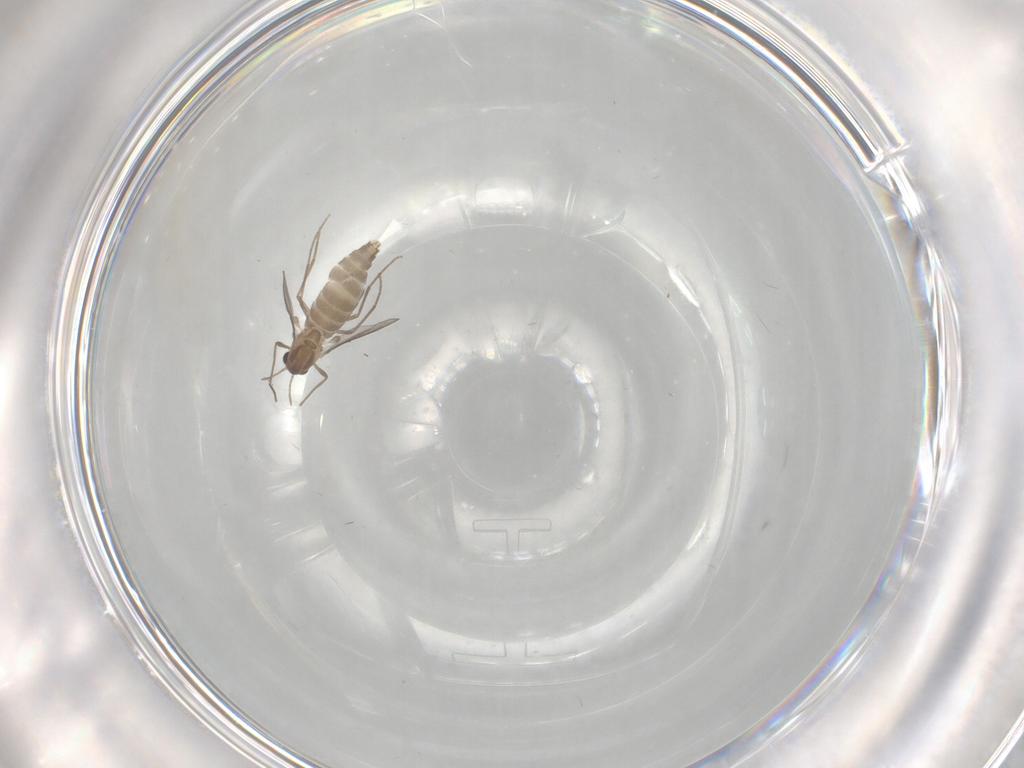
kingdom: Animalia
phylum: Arthropoda
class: Insecta
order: Diptera
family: Chironomidae
